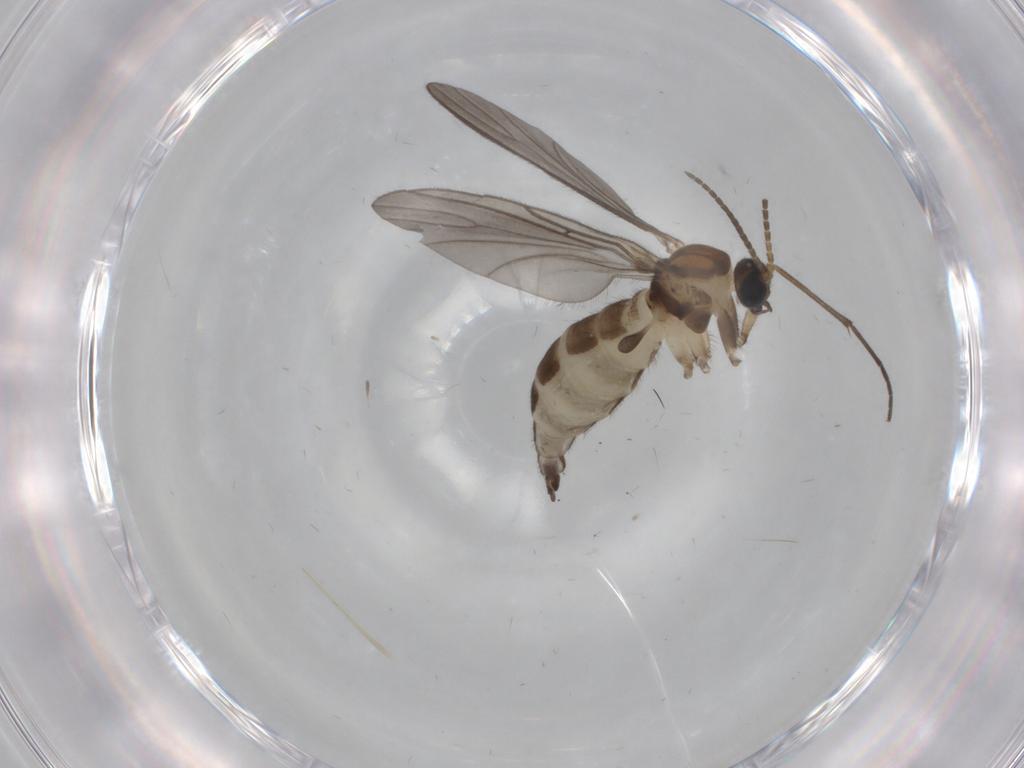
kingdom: Animalia
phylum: Arthropoda
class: Insecta
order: Diptera
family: Sciaridae
